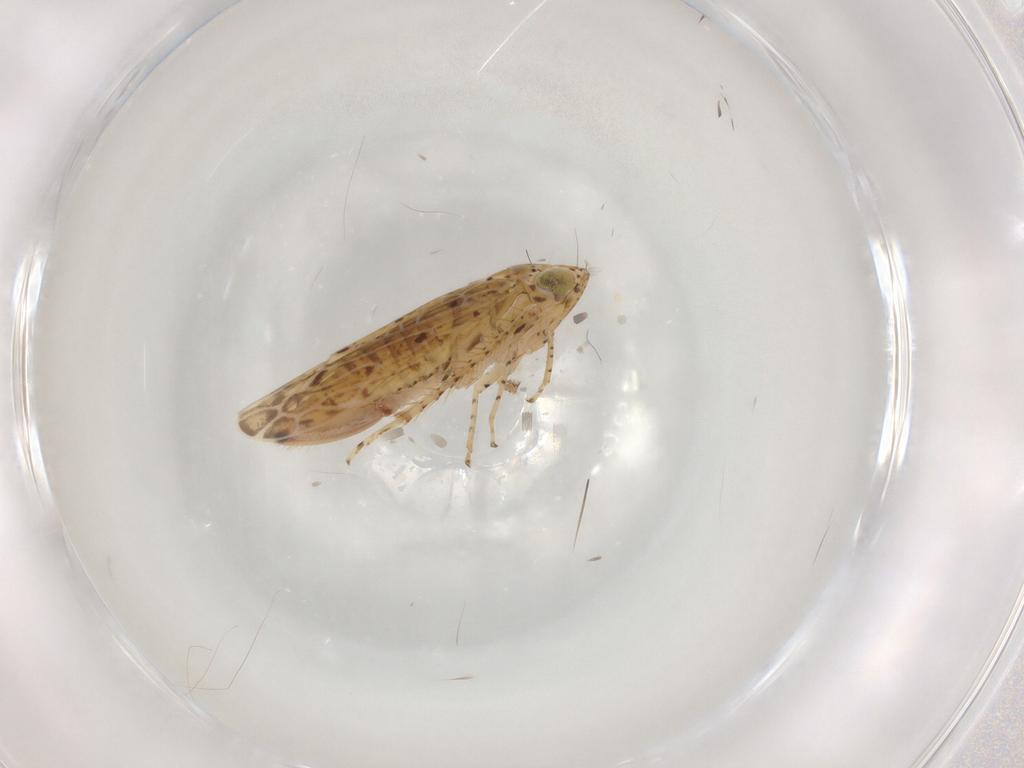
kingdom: Animalia
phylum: Arthropoda
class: Insecta
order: Hemiptera
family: Cicadellidae
